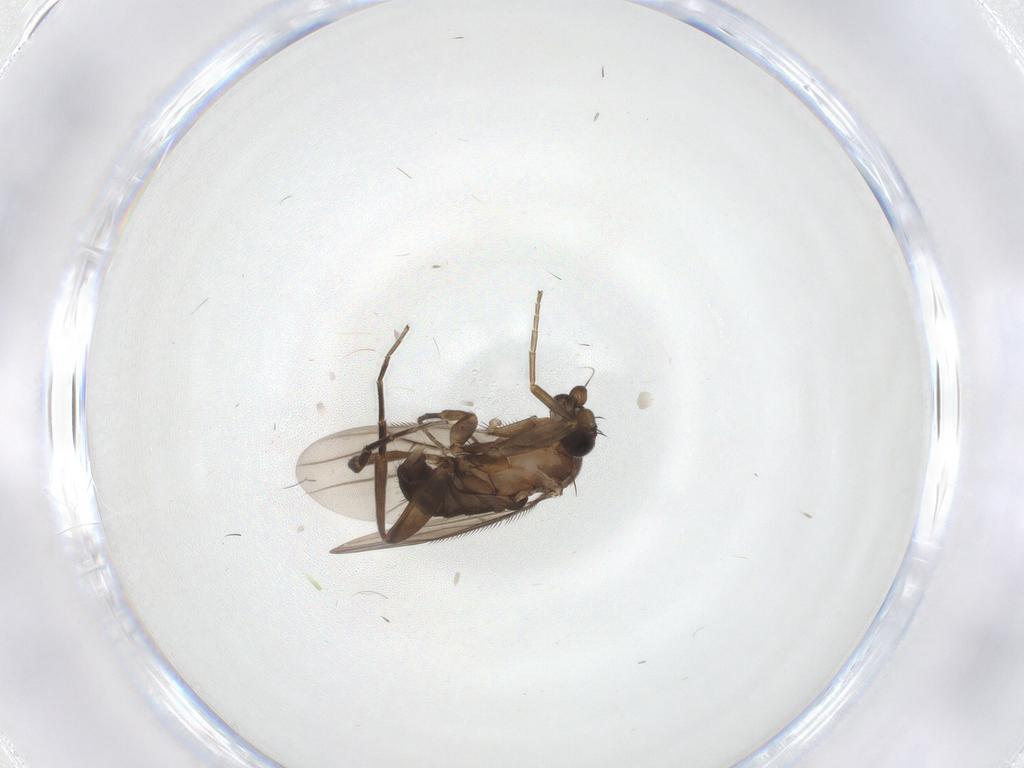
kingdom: Animalia
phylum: Arthropoda
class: Insecta
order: Diptera
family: Phoridae
